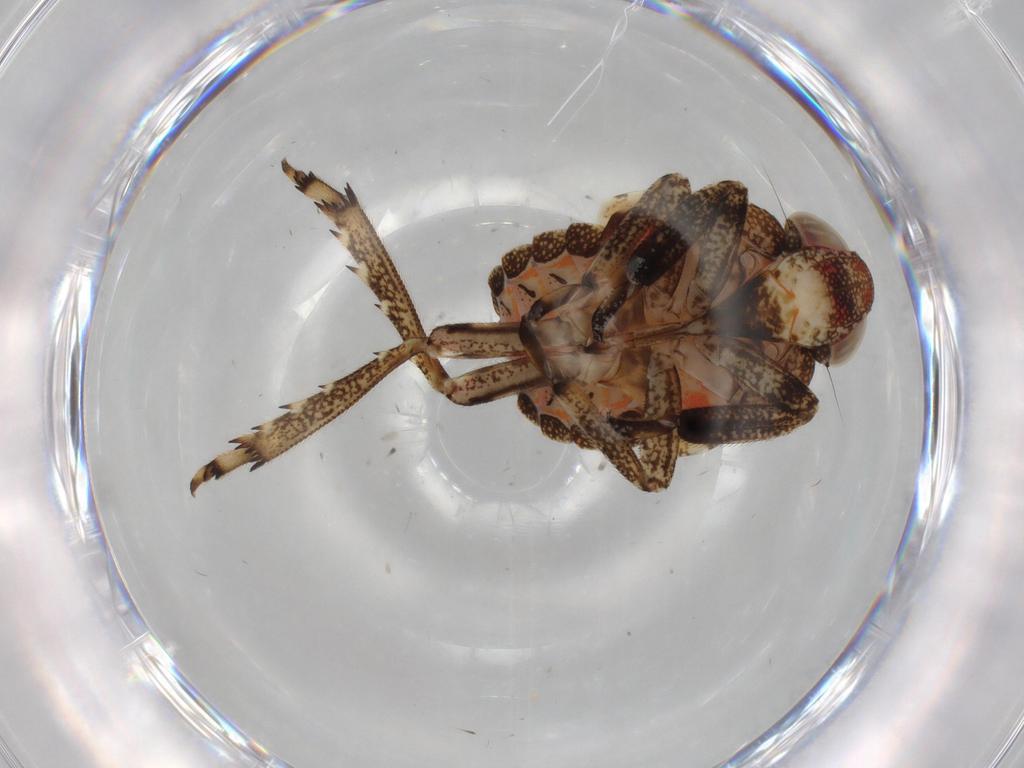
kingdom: Animalia
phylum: Arthropoda
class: Insecta
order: Hemiptera
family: Issidae
